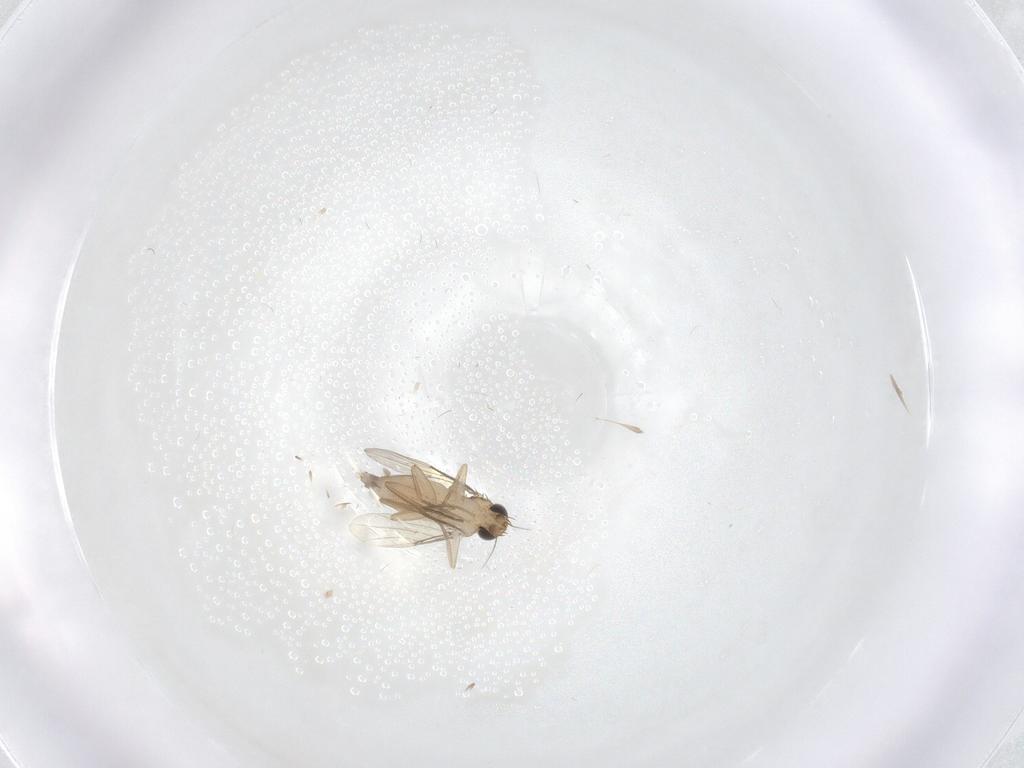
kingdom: Animalia
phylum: Arthropoda
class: Insecta
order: Diptera
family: Phoridae
